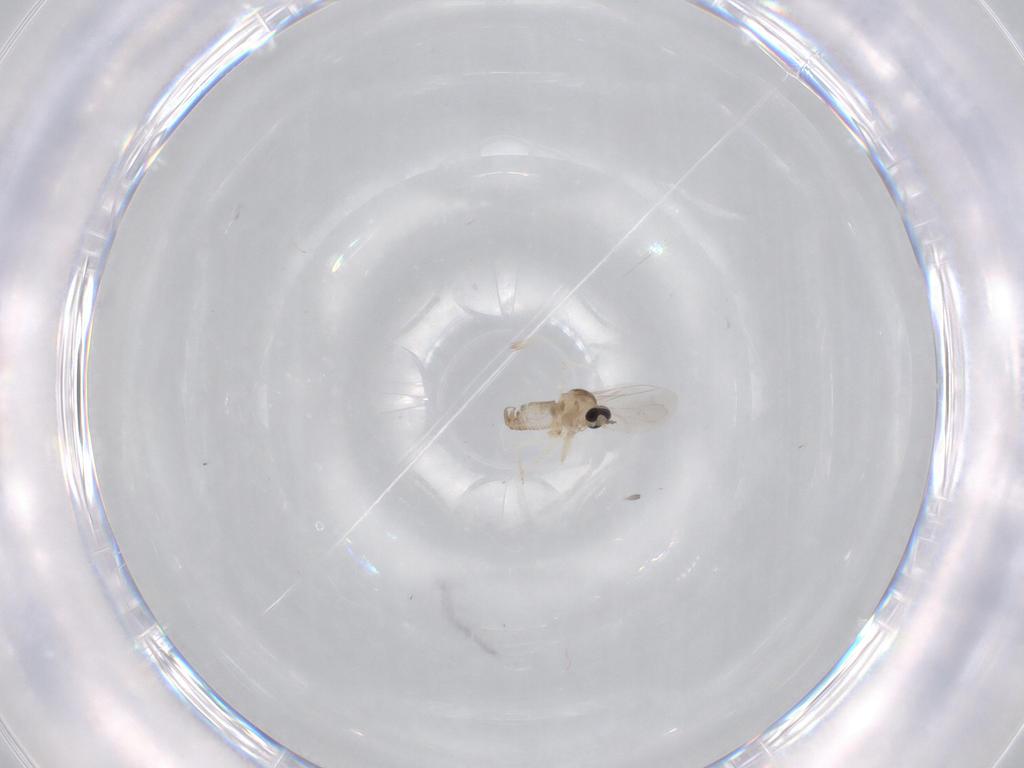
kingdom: Animalia
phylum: Arthropoda
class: Insecta
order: Diptera
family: Cecidomyiidae
